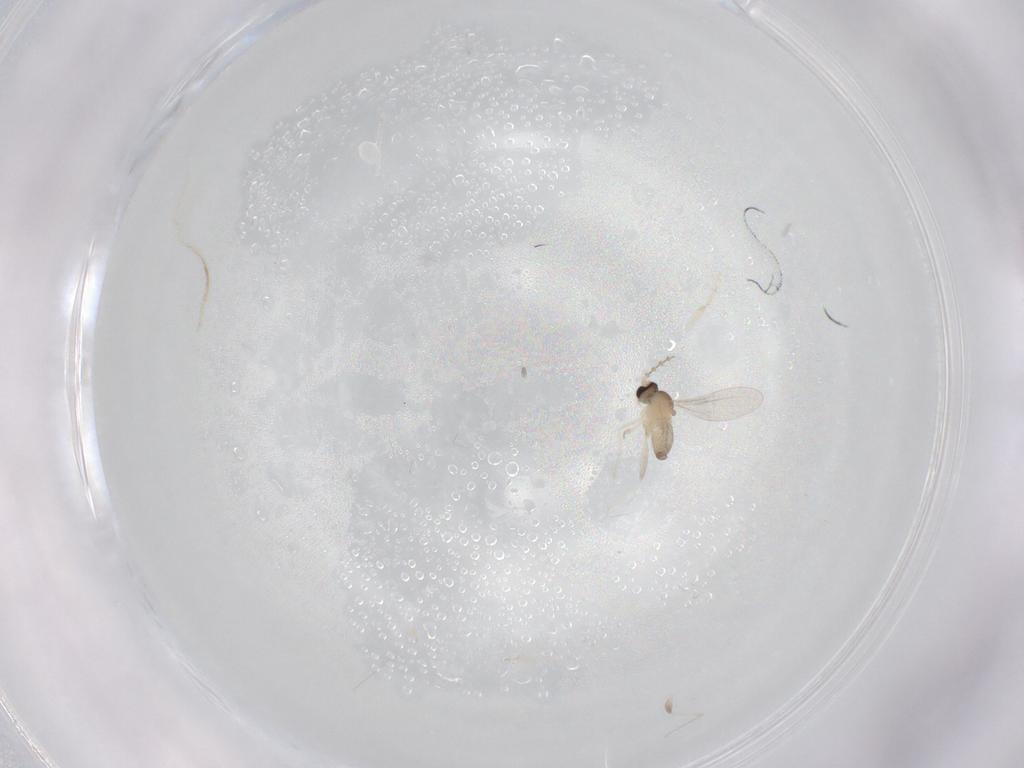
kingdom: Animalia
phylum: Arthropoda
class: Insecta
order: Diptera
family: Cecidomyiidae
